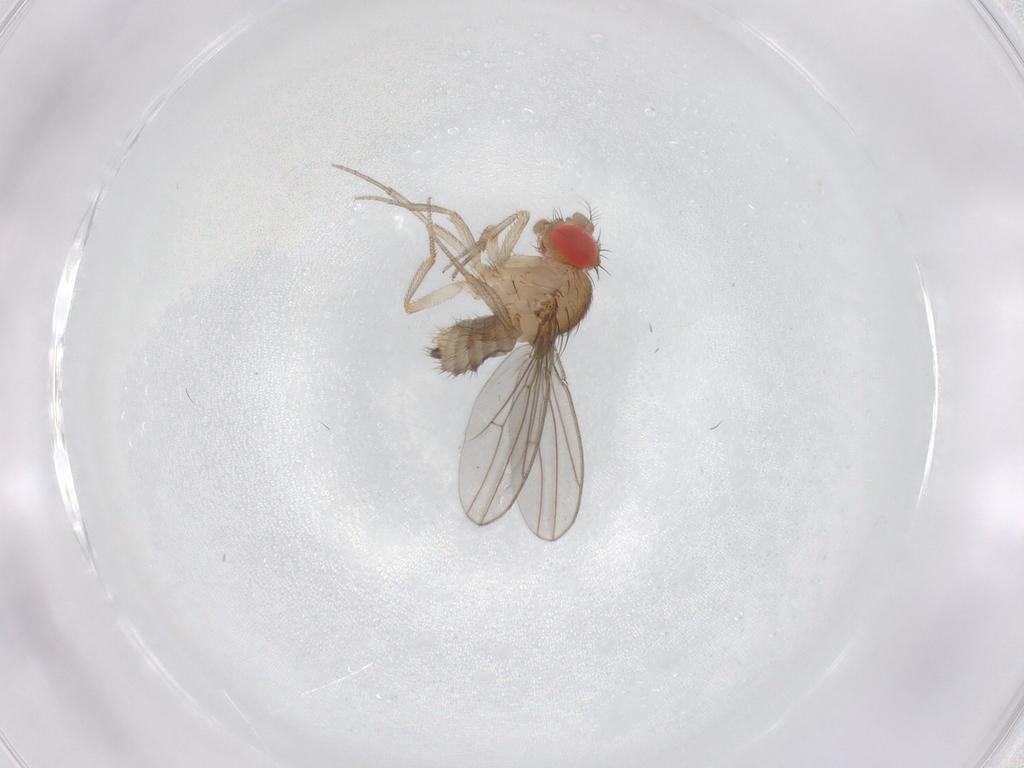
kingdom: Animalia
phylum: Arthropoda
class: Insecta
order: Diptera
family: Drosophilidae
